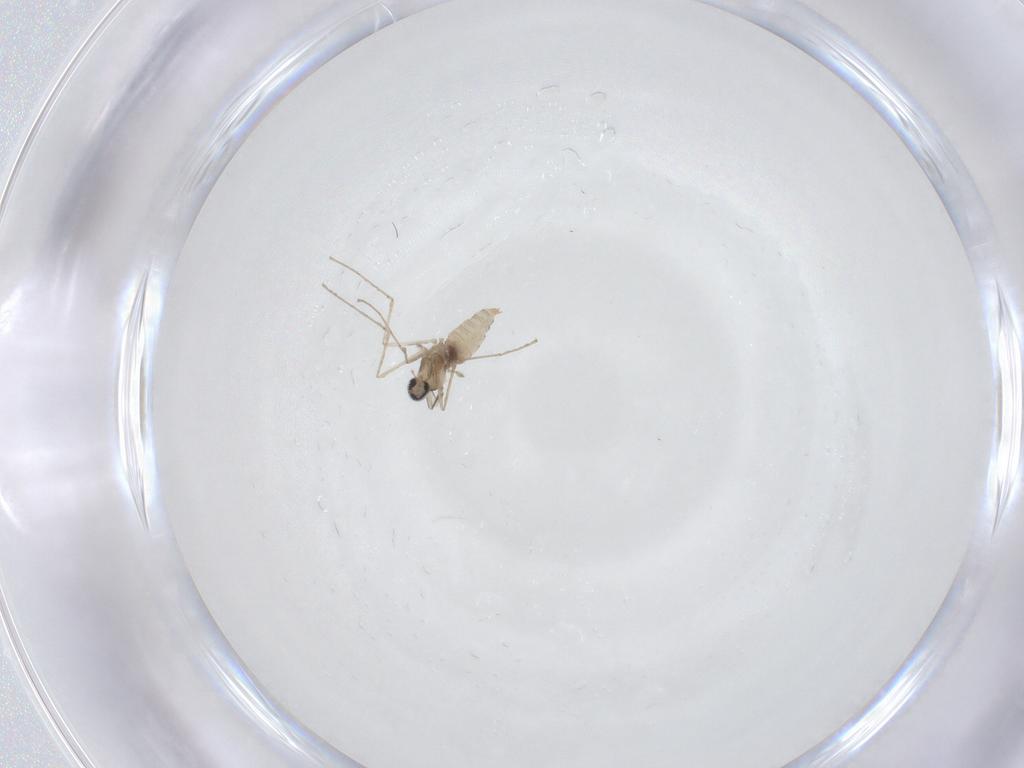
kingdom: Animalia
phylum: Arthropoda
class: Insecta
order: Diptera
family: Cecidomyiidae
